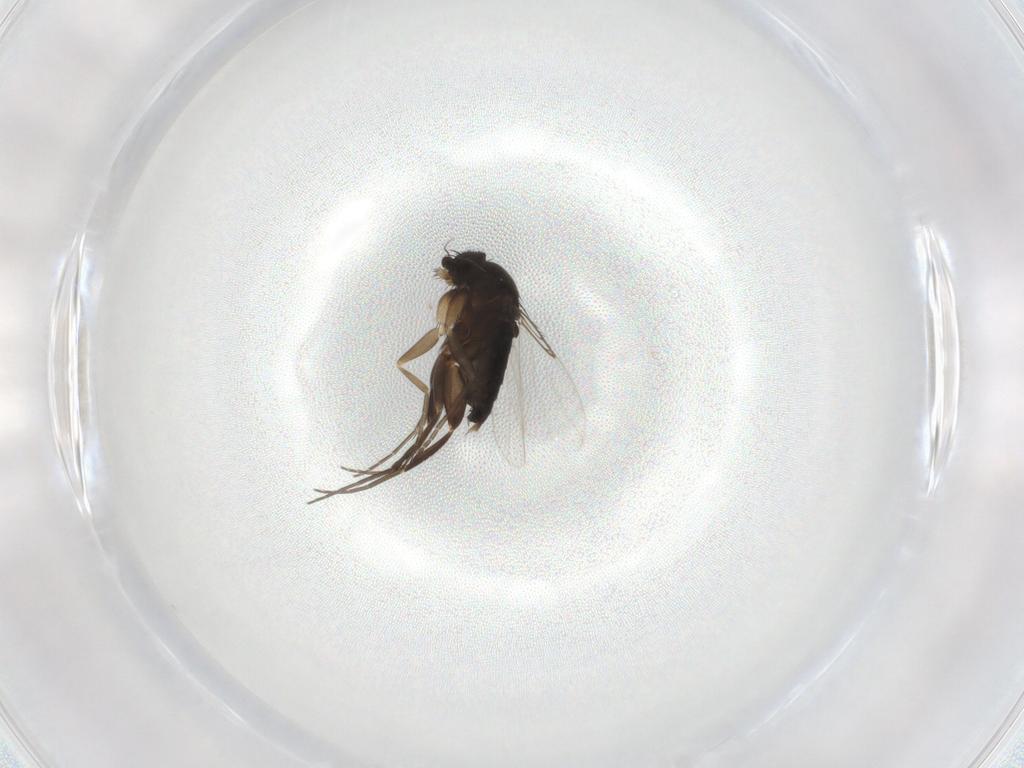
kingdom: Animalia
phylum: Arthropoda
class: Insecta
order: Diptera
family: Phoridae
